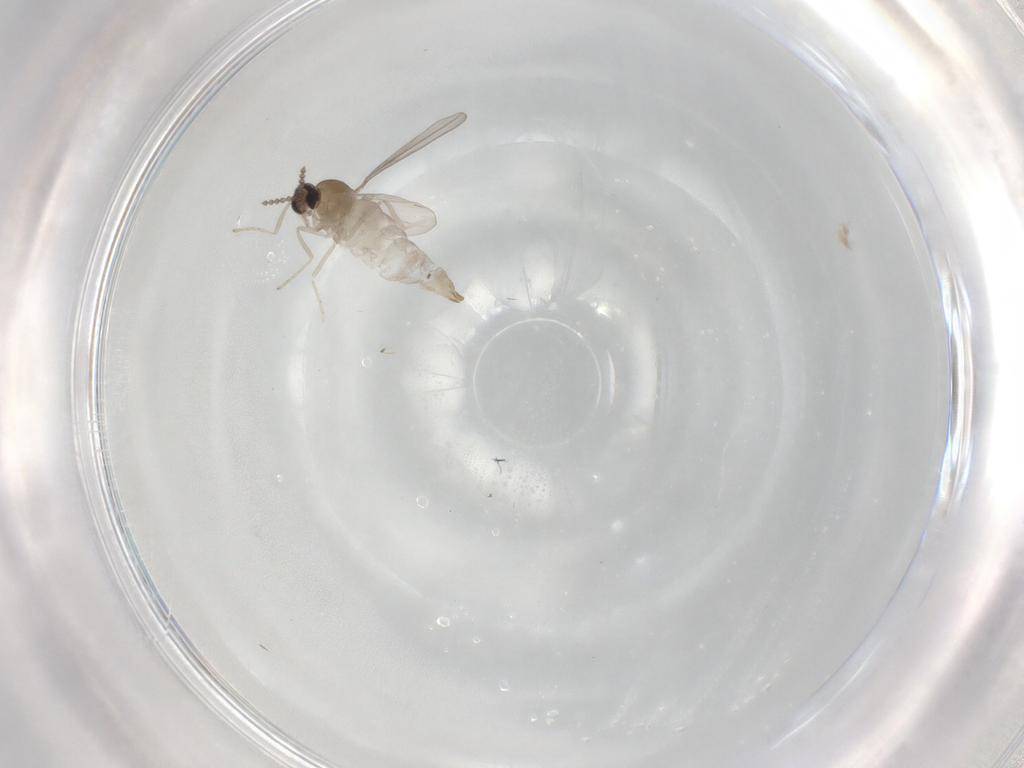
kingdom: Animalia
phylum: Arthropoda
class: Insecta
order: Diptera
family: Cecidomyiidae
